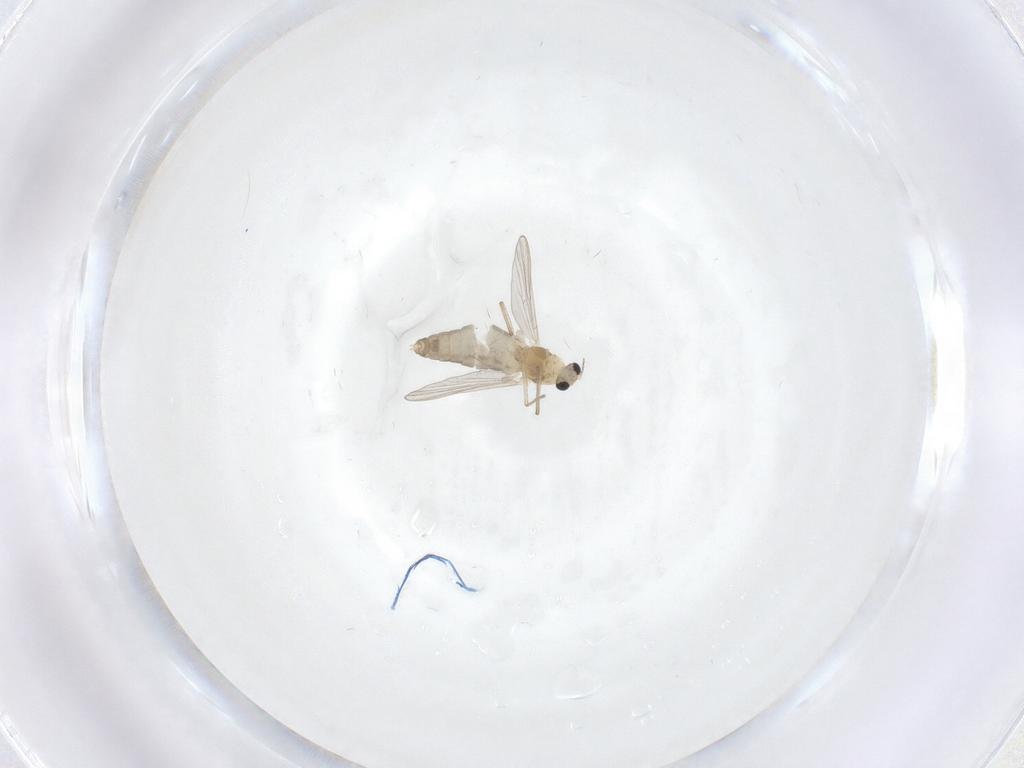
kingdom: Animalia
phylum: Arthropoda
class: Insecta
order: Diptera
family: Chironomidae
